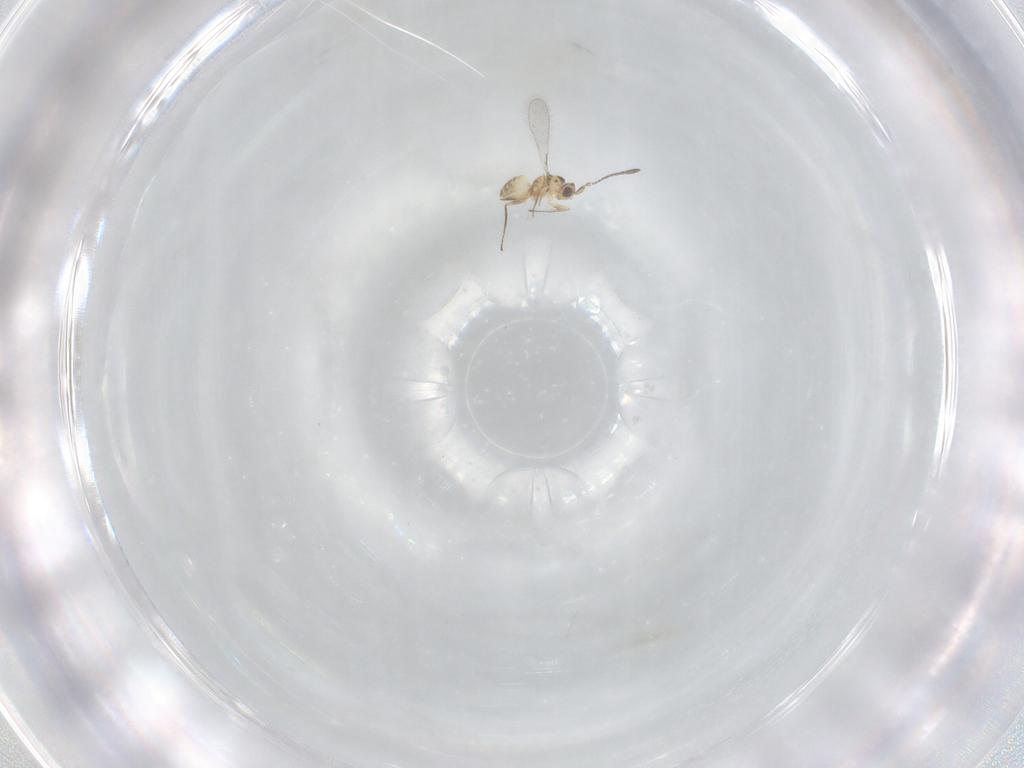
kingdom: Animalia
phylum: Arthropoda
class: Insecta
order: Hymenoptera
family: Mymaridae
